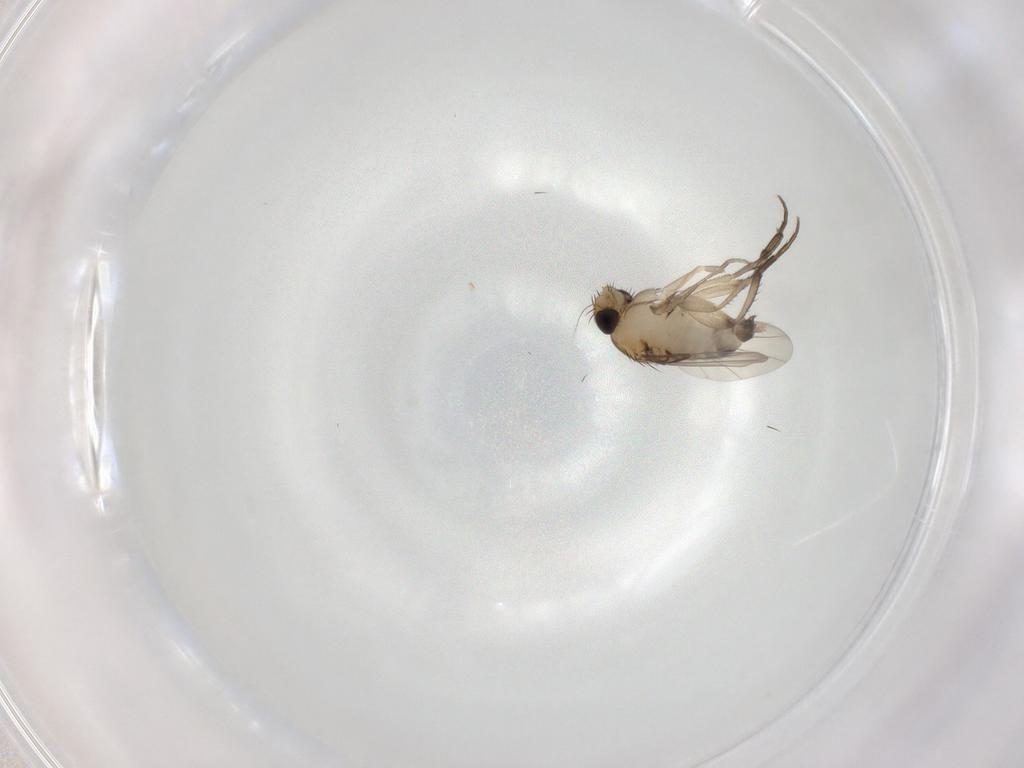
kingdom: Animalia
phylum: Arthropoda
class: Insecta
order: Diptera
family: Phoridae
